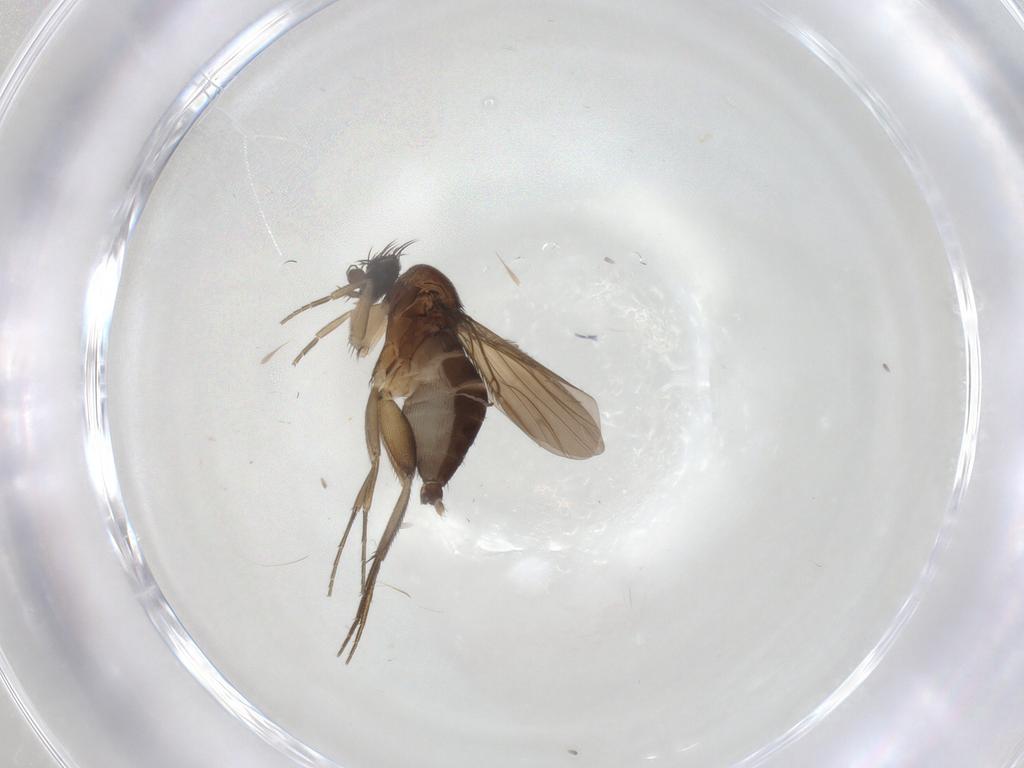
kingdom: Animalia
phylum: Arthropoda
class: Insecta
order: Diptera
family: Phoridae
